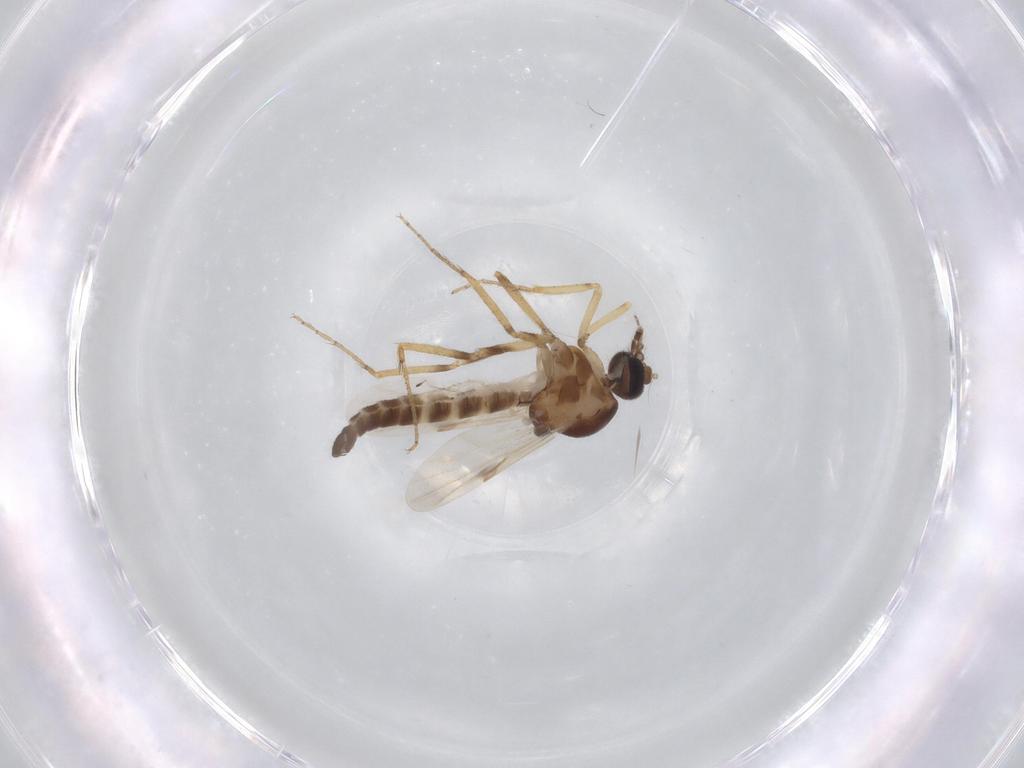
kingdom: Animalia
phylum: Arthropoda
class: Insecta
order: Diptera
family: Ceratopogonidae
